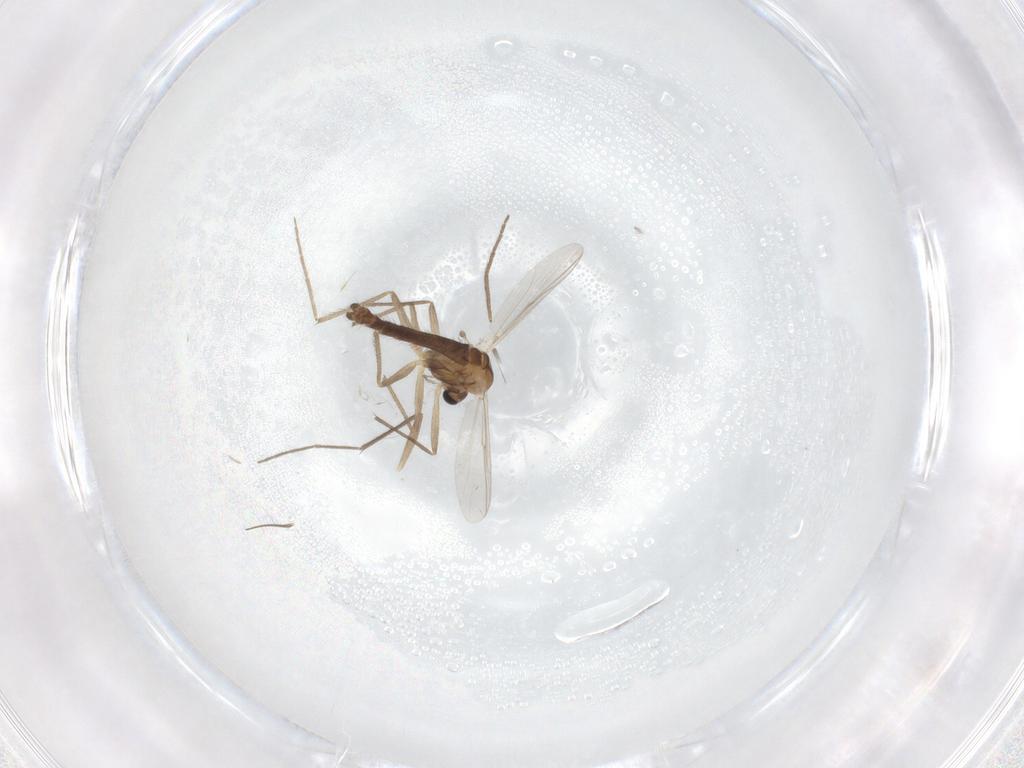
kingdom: Animalia
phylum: Arthropoda
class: Insecta
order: Diptera
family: Chironomidae
